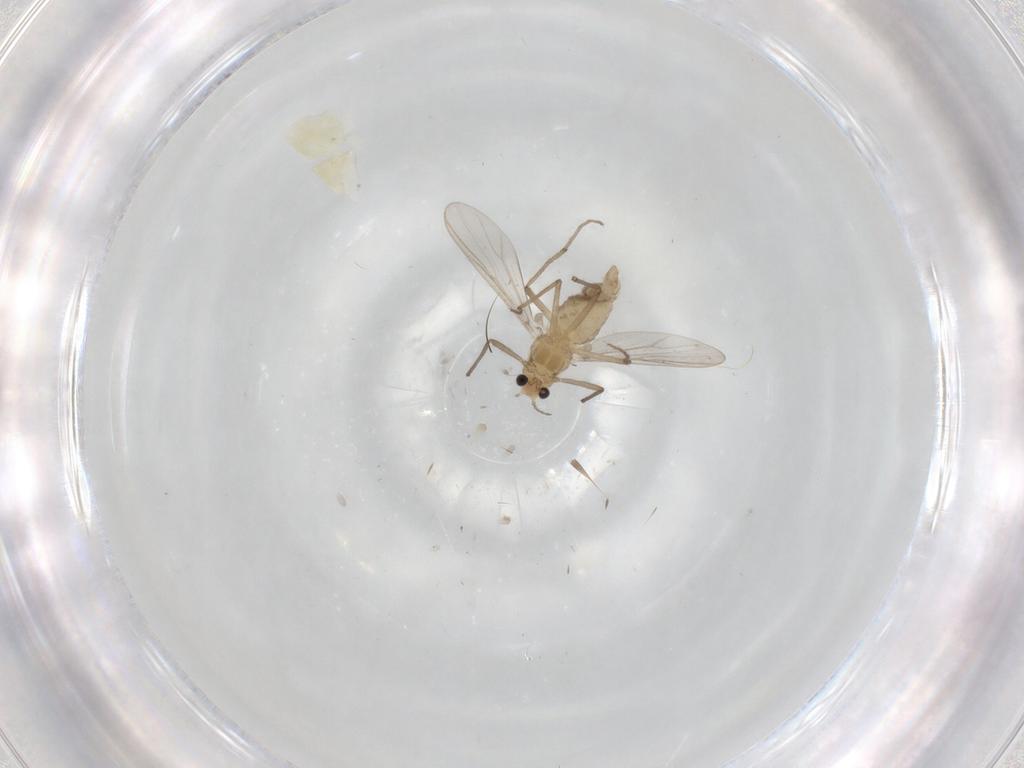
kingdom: Animalia
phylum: Arthropoda
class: Insecta
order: Diptera
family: Chironomidae
